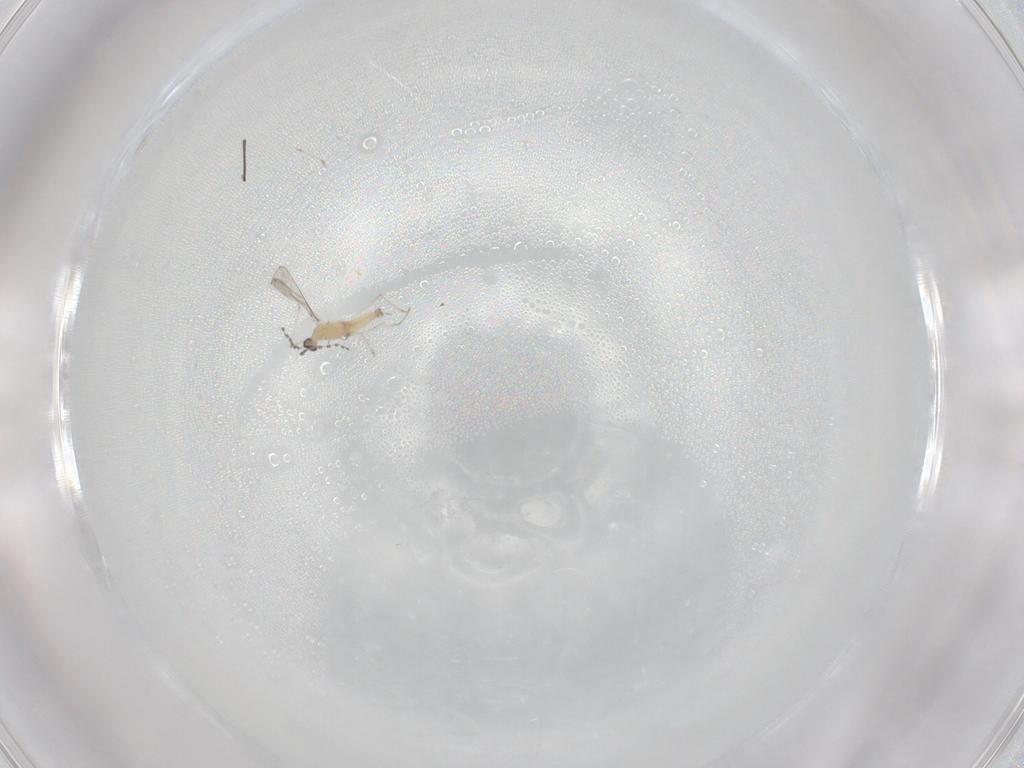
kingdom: Animalia
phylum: Arthropoda
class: Insecta
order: Diptera
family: Cecidomyiidae
